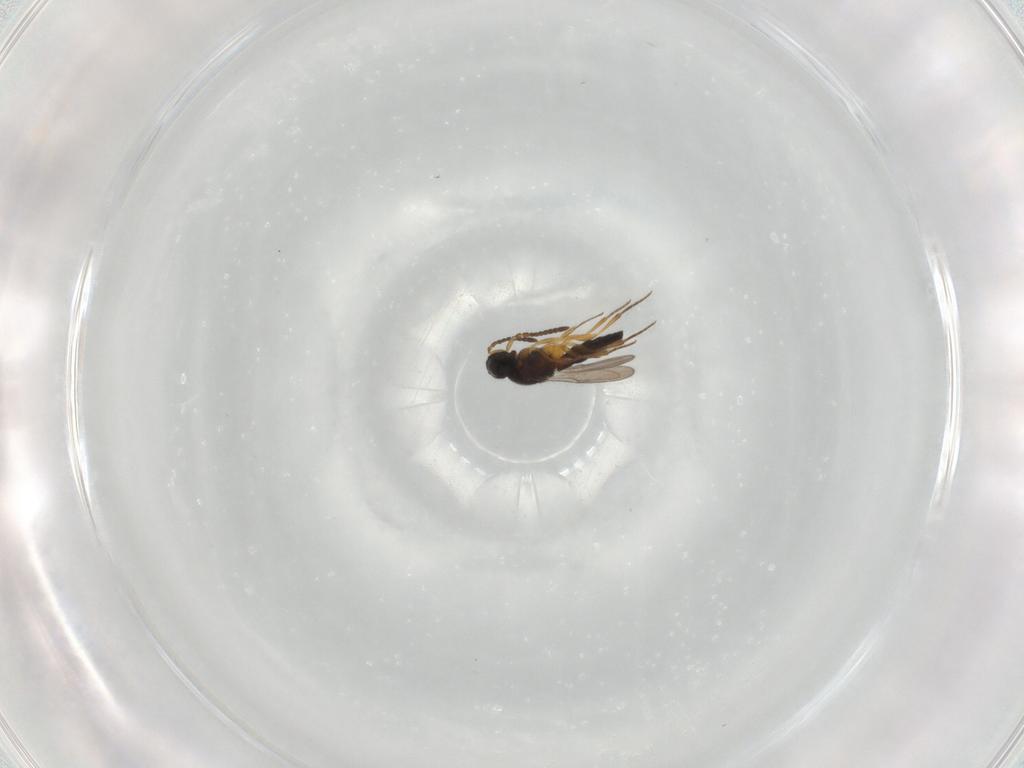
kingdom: Animalia
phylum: Arthropoda
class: Insecta
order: Hymenoptera
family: Scelionidae
